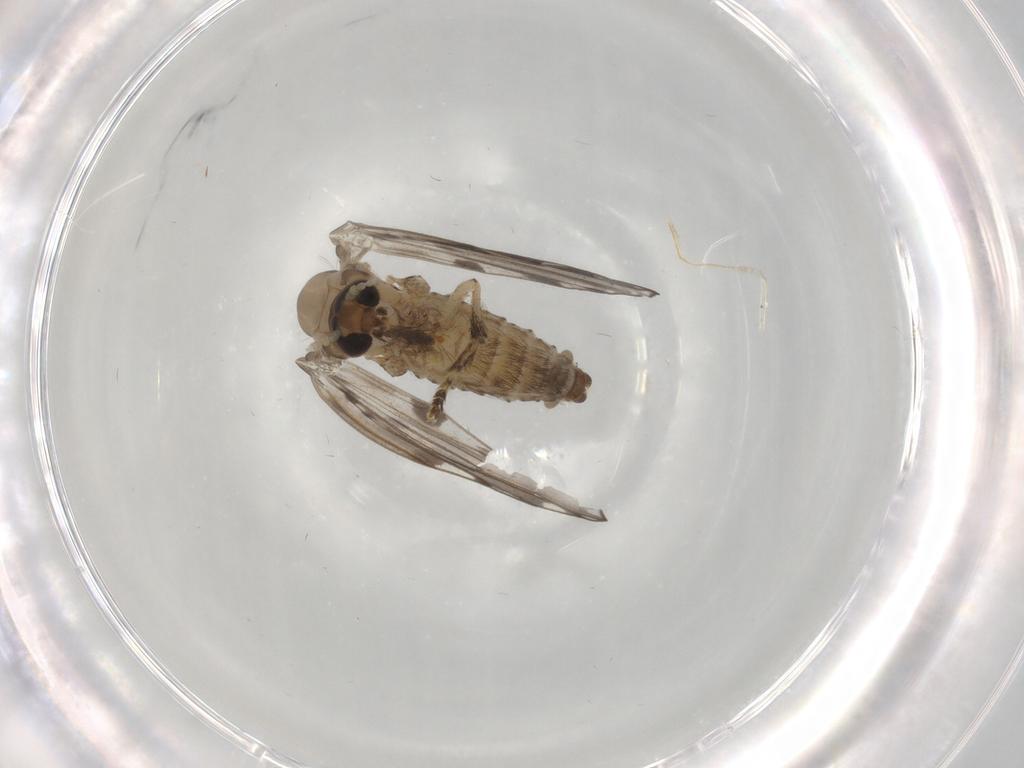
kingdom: Animalia
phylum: Arthropoda
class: Insecta
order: Diptera
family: Psychodidae
